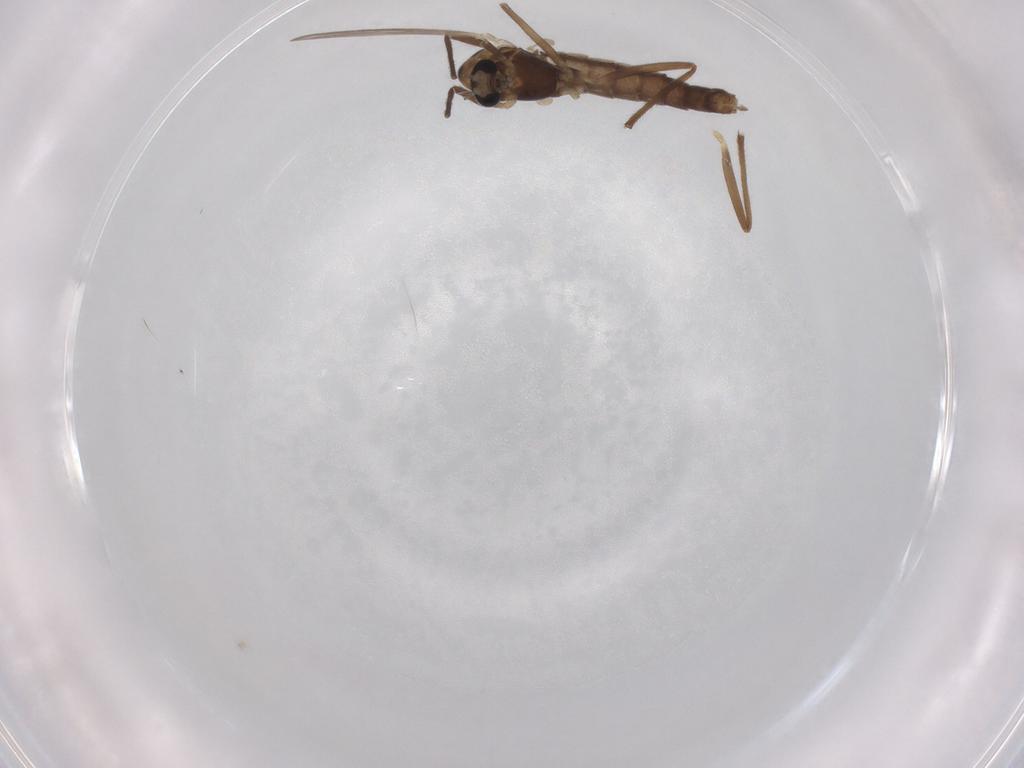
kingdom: Animalia
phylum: Arthropoda
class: Insecta
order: Diptera
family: Chironomidae
